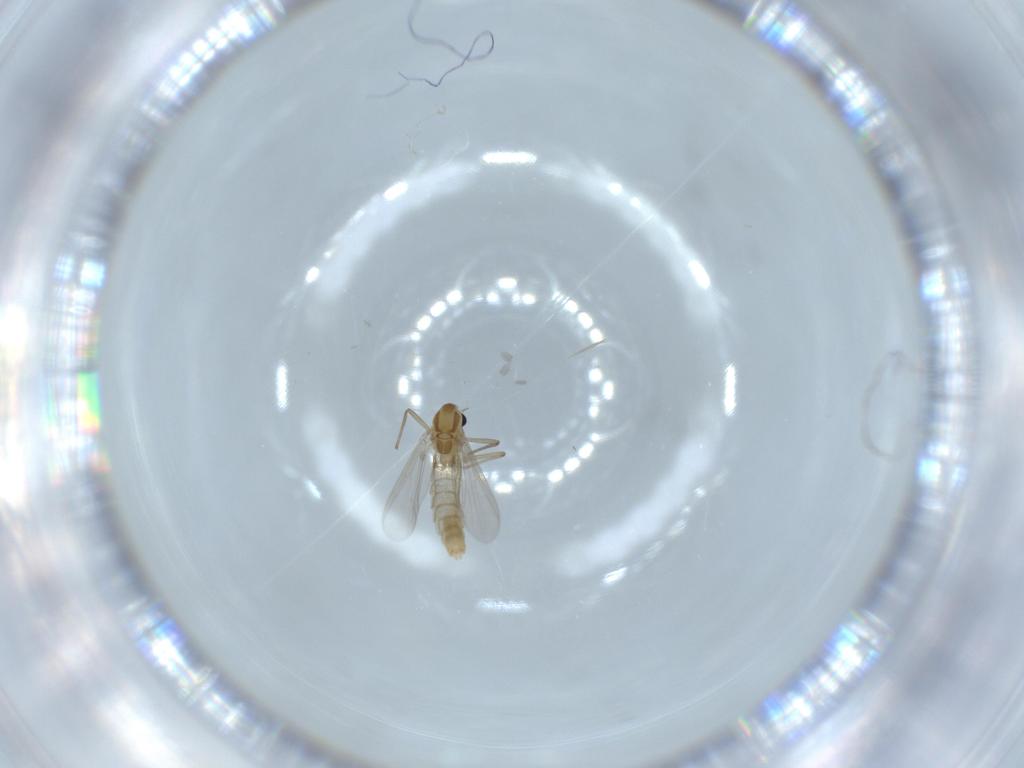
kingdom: Animalia
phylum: Arthropoda
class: Insecta
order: Diptera
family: Chironomidae
